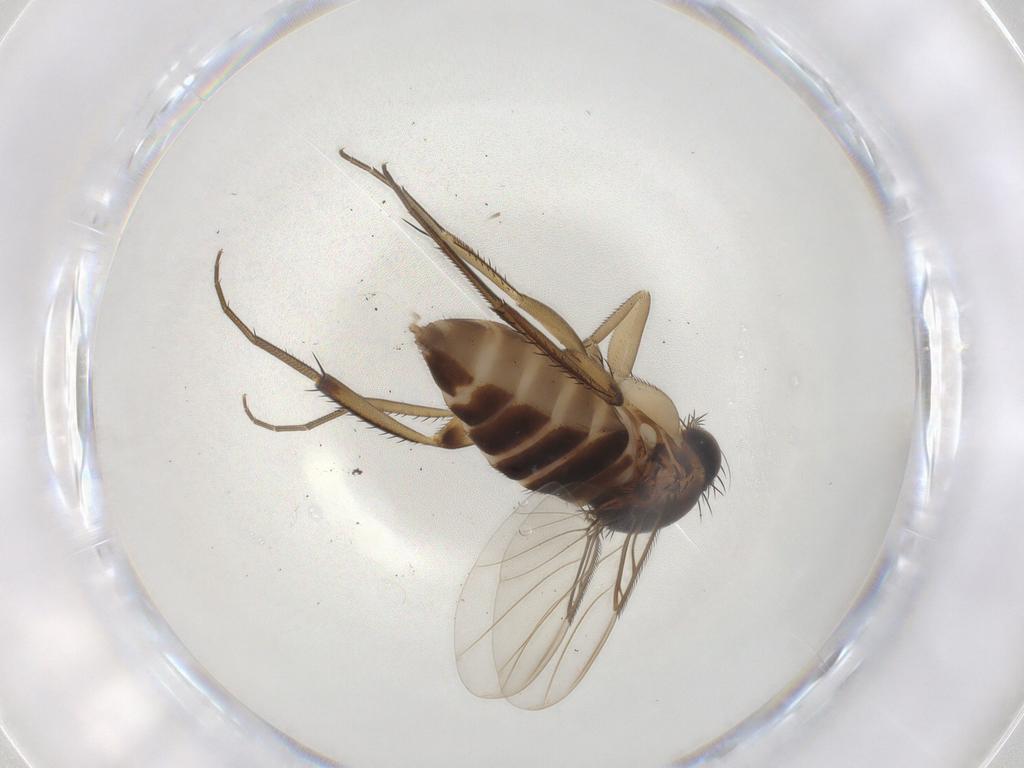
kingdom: Animalia
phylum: Arthropoda
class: Insecta
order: Diptera
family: Phoridae
